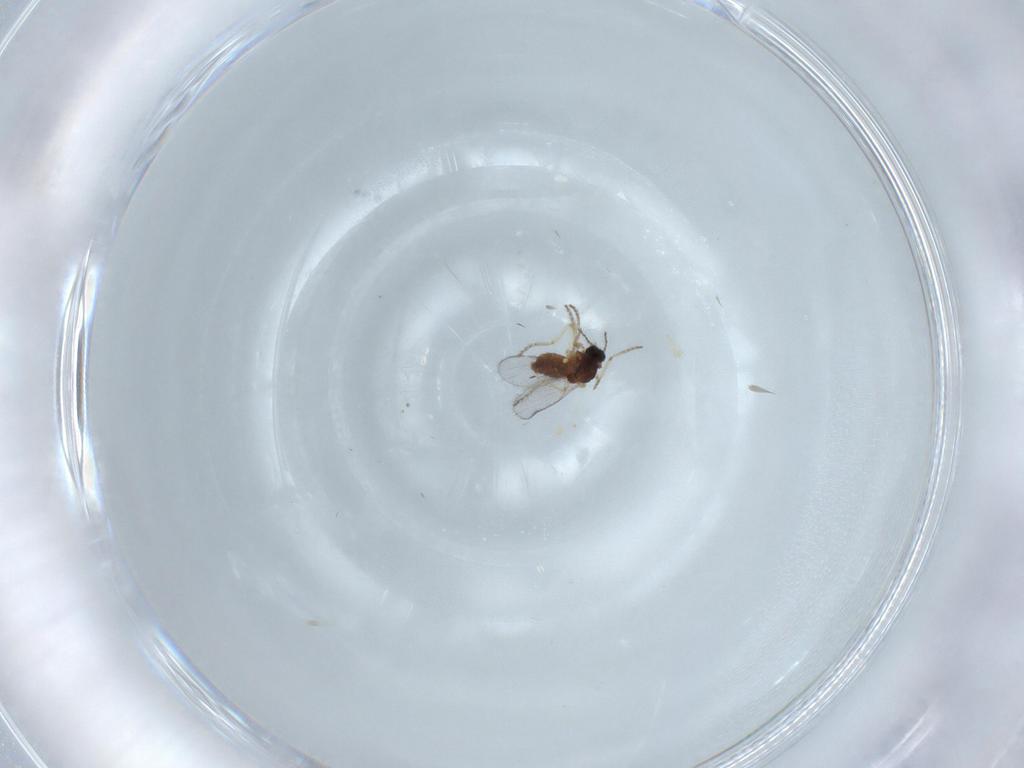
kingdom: Animalia
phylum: Arthropoda
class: Insecta
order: Diptera
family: Ceratopogonidae
